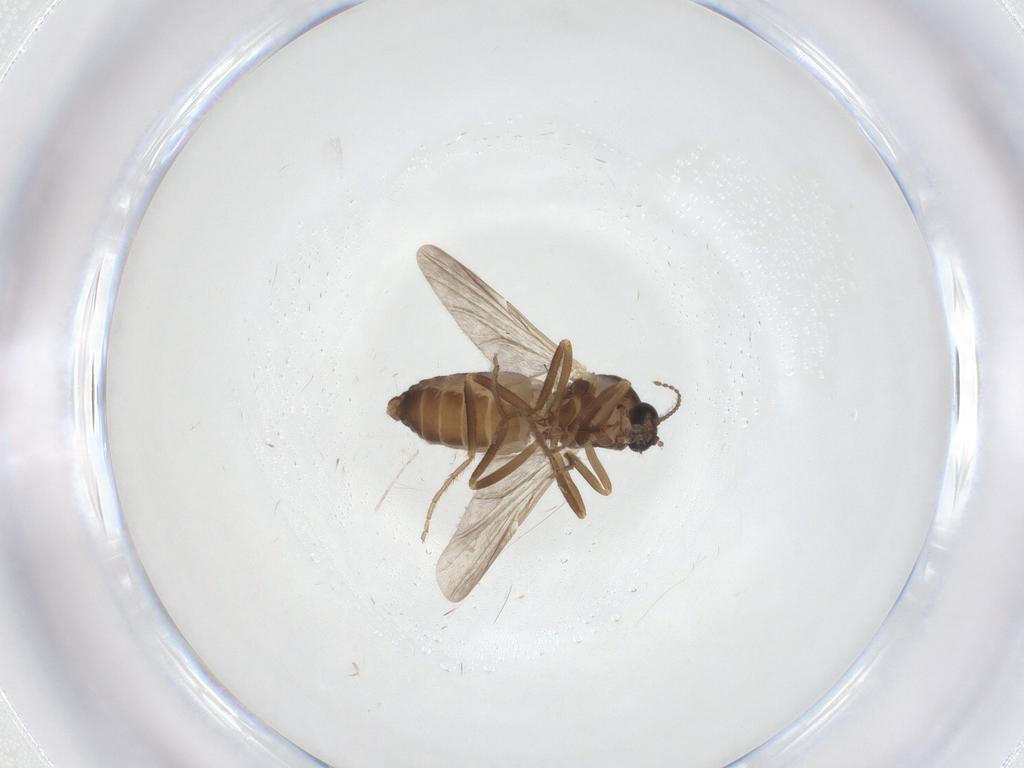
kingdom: Animalia
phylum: Arthropoda
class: Insecta
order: Diptera
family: Ceratopogonidae
